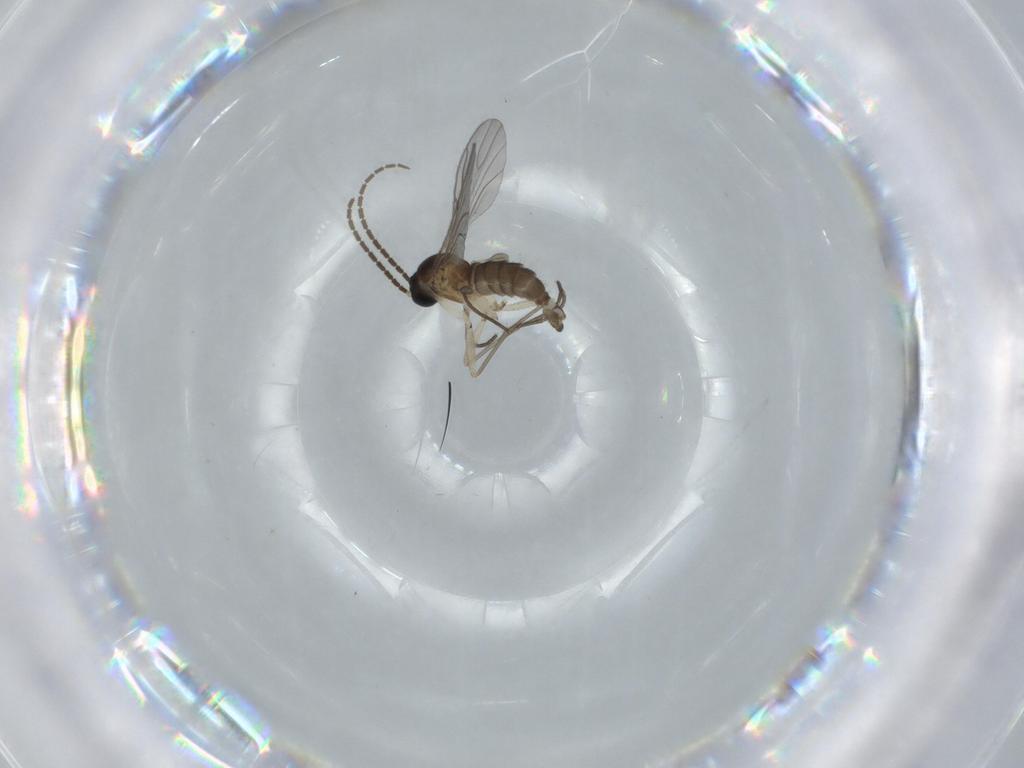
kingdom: Animalia
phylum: Arthropoda
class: Insecta
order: Diptera
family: Sciaridae
